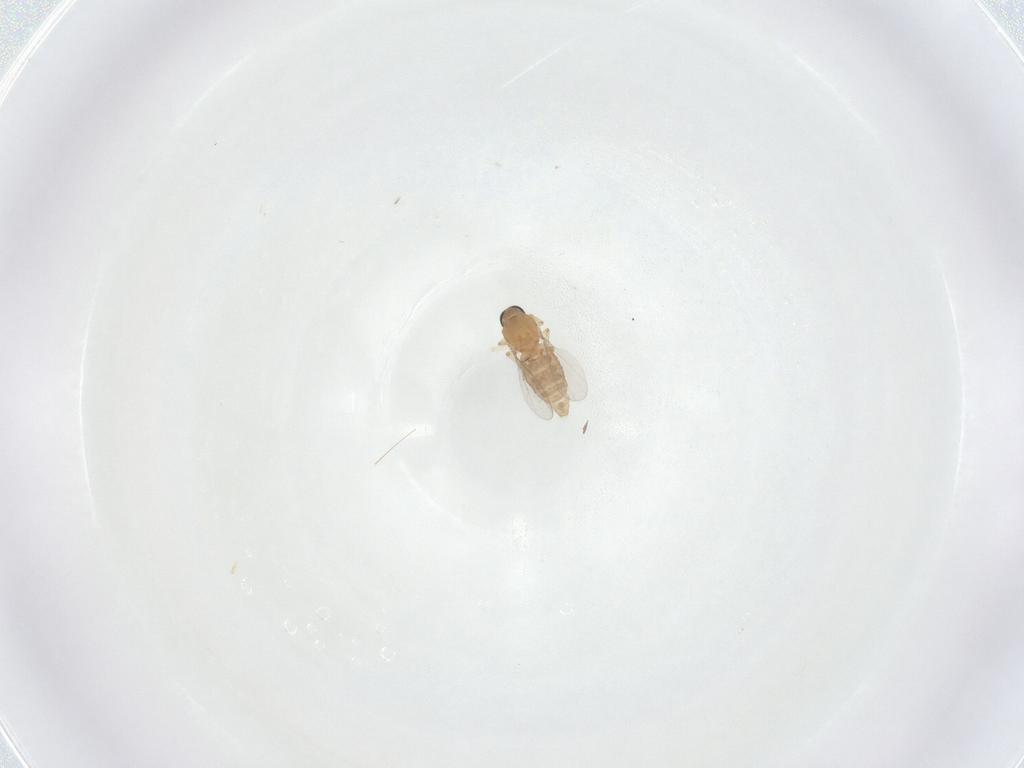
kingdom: Animalia
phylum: Arthropoda
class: Insecta
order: Diptera
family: Ceratopogonidae
